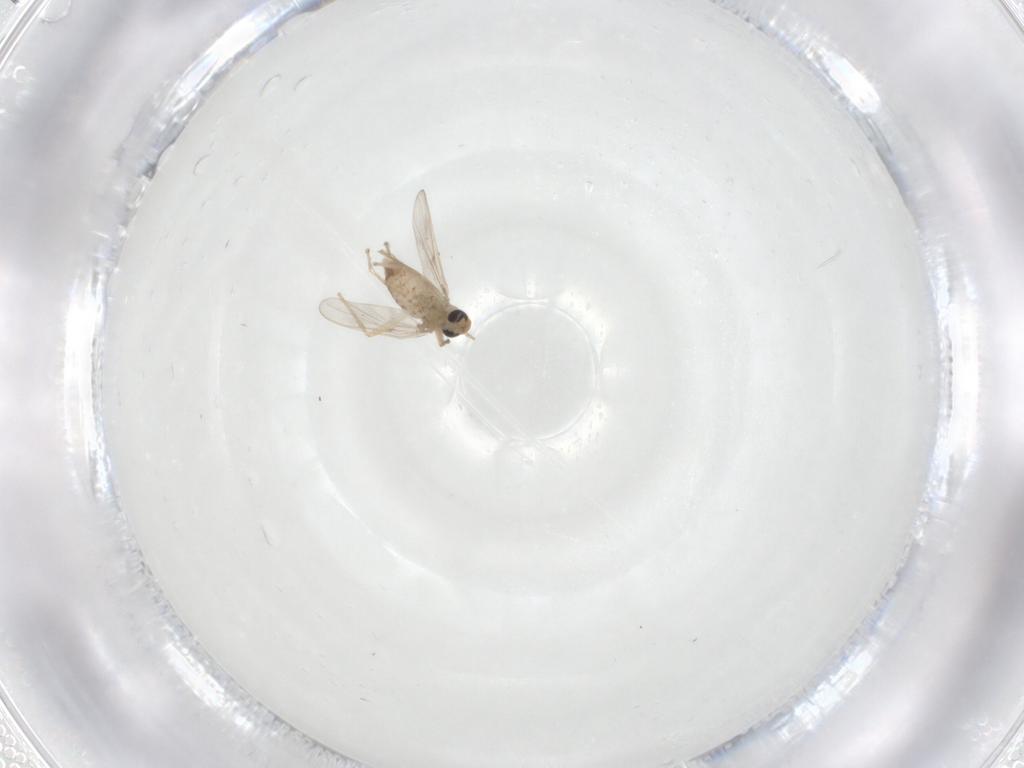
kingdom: Animalia
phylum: Arthropoda
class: Insecta
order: Diptera
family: Chironomidae
